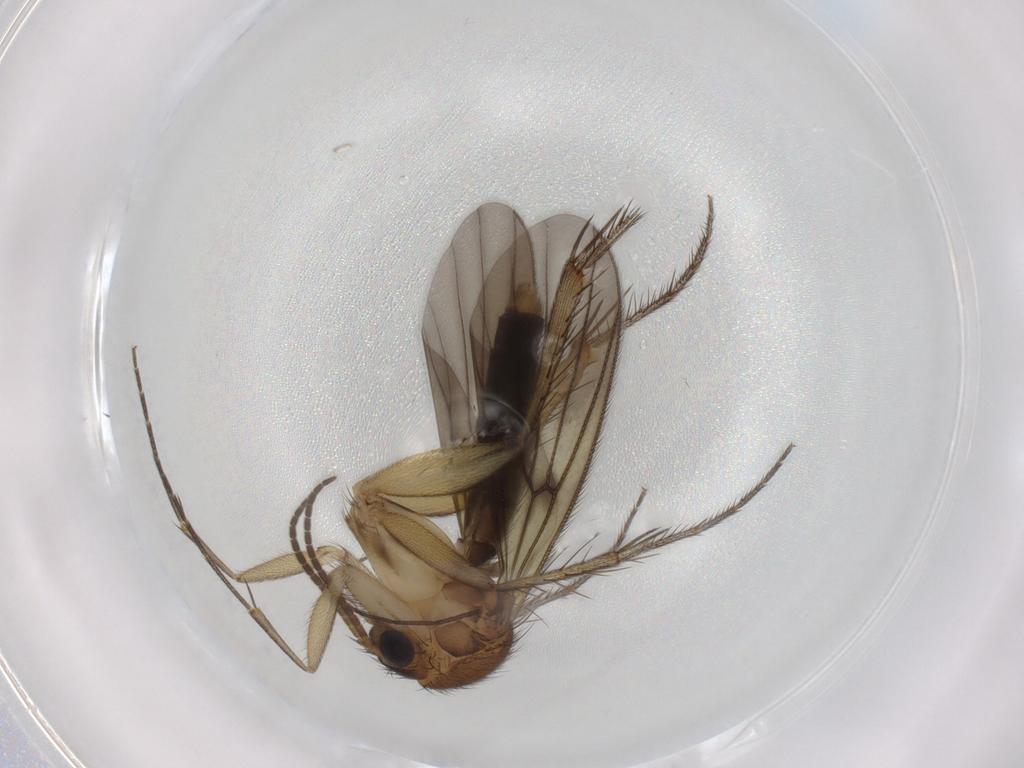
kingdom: Animalia
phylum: Arthropoda
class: Insecta
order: Diptera
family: Limoniidae
